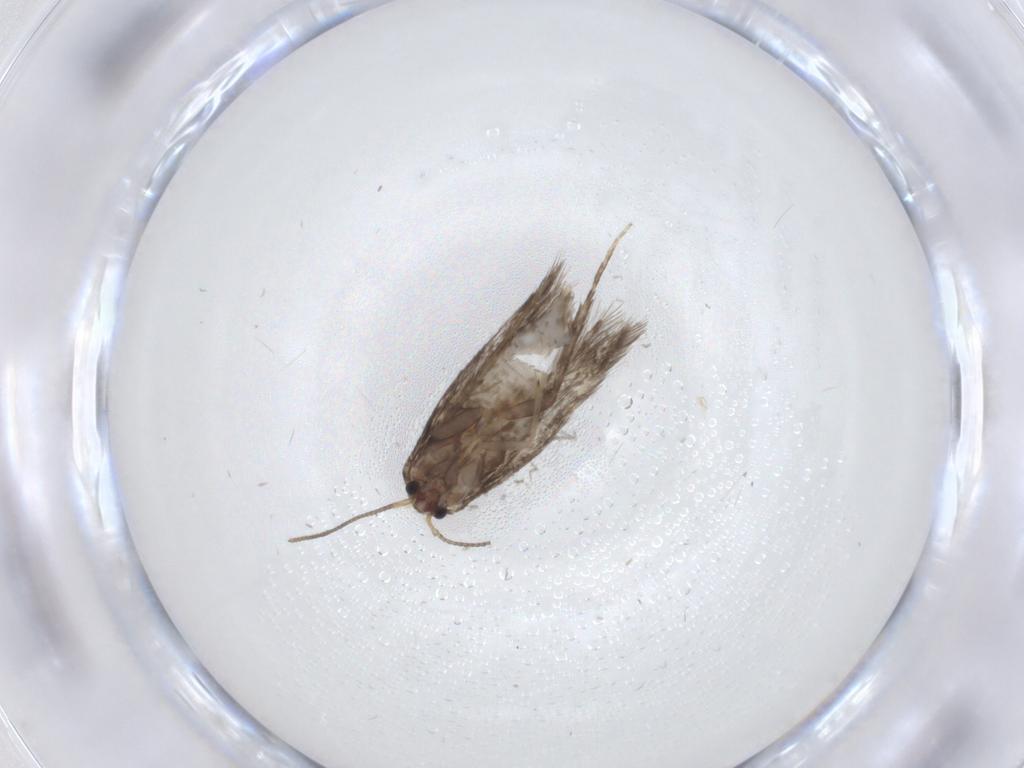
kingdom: Animalia
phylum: Arthropoda
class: Insecta
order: Lepidoptera
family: Nepticulidae
